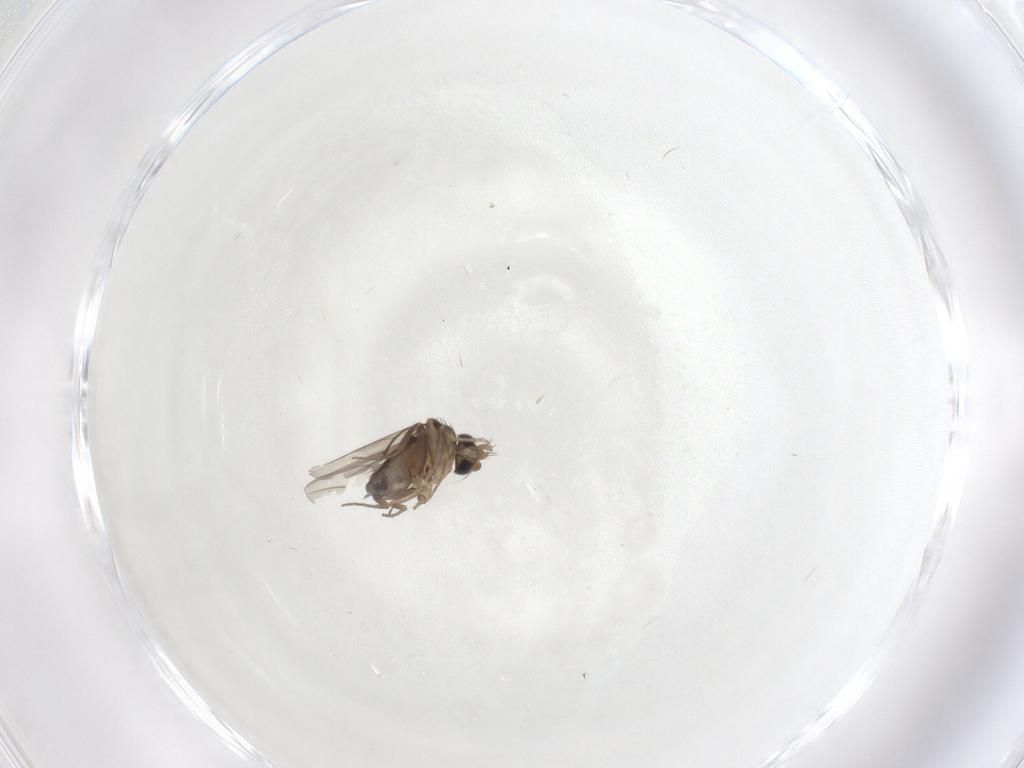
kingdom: Animalia
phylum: Arthropoda
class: Insecta
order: Diptera
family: Phoridae
